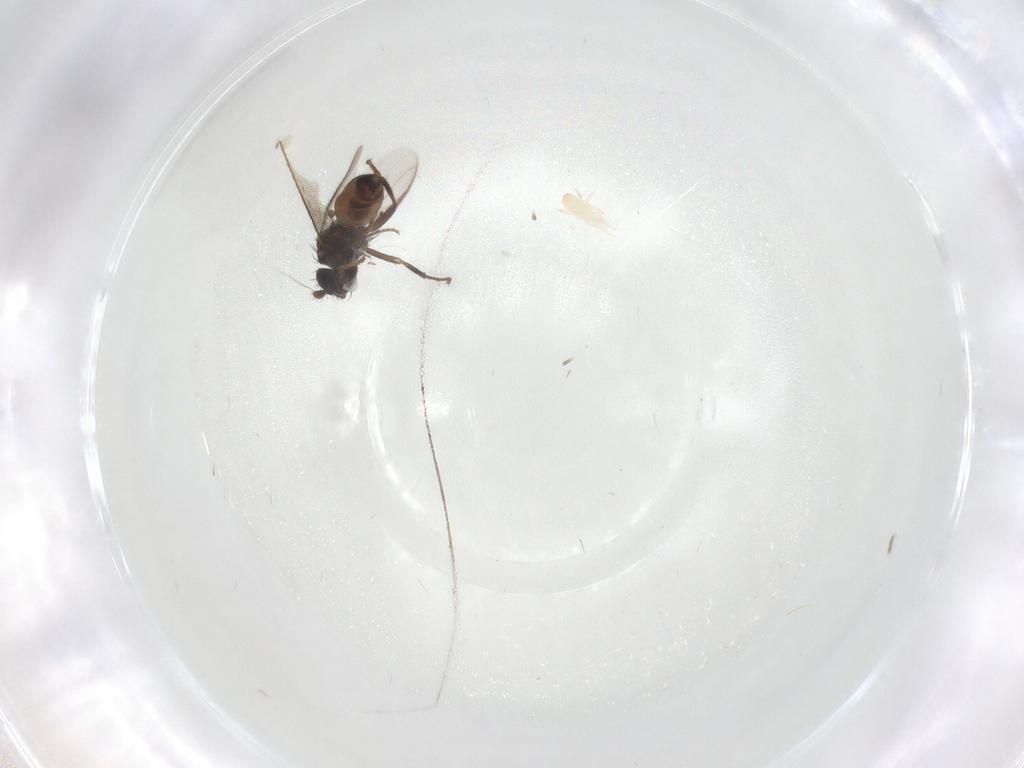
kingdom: Animalia
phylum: Arthropoda
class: Insecta
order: Diptera
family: Sphaeroceridae
